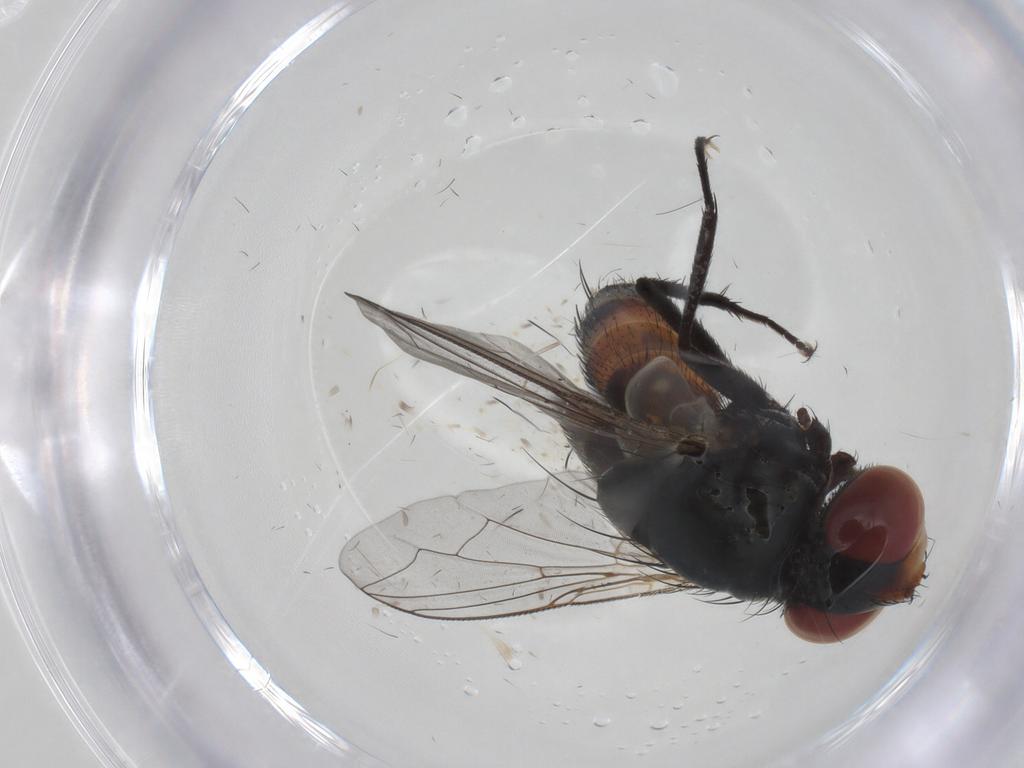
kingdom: Animalia
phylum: Arthropoda
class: Insecta
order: Diptera
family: Sarcophagidae
